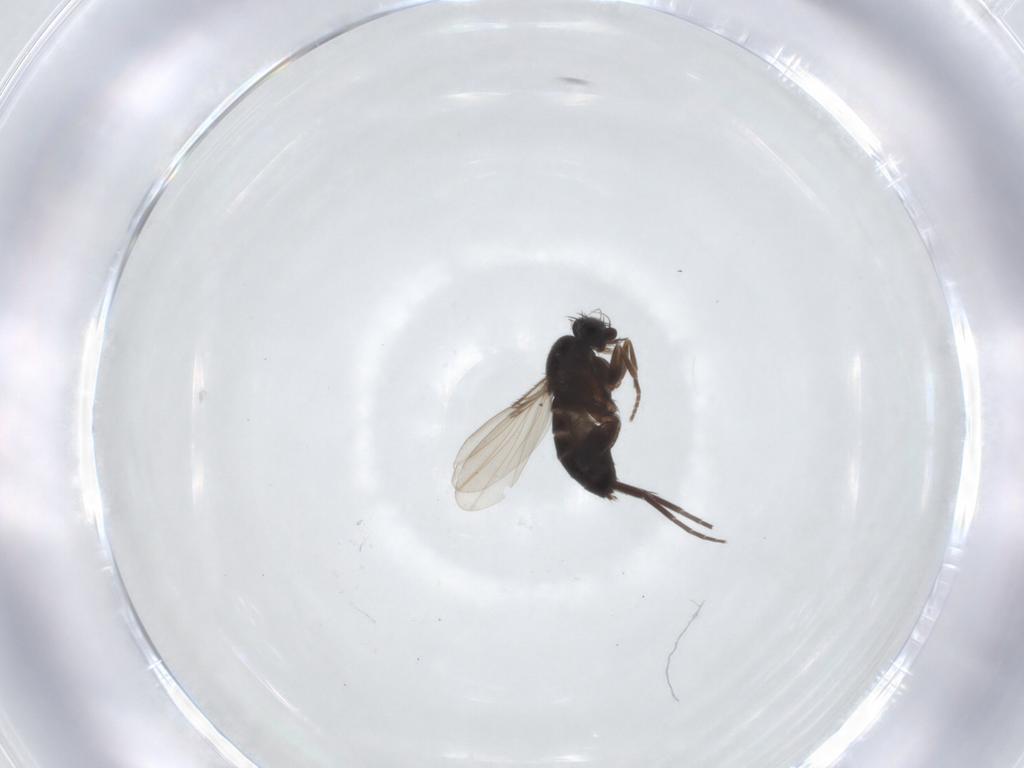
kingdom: Animalia
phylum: Arthropoda
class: Insecta
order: Diptera
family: Phoridae
